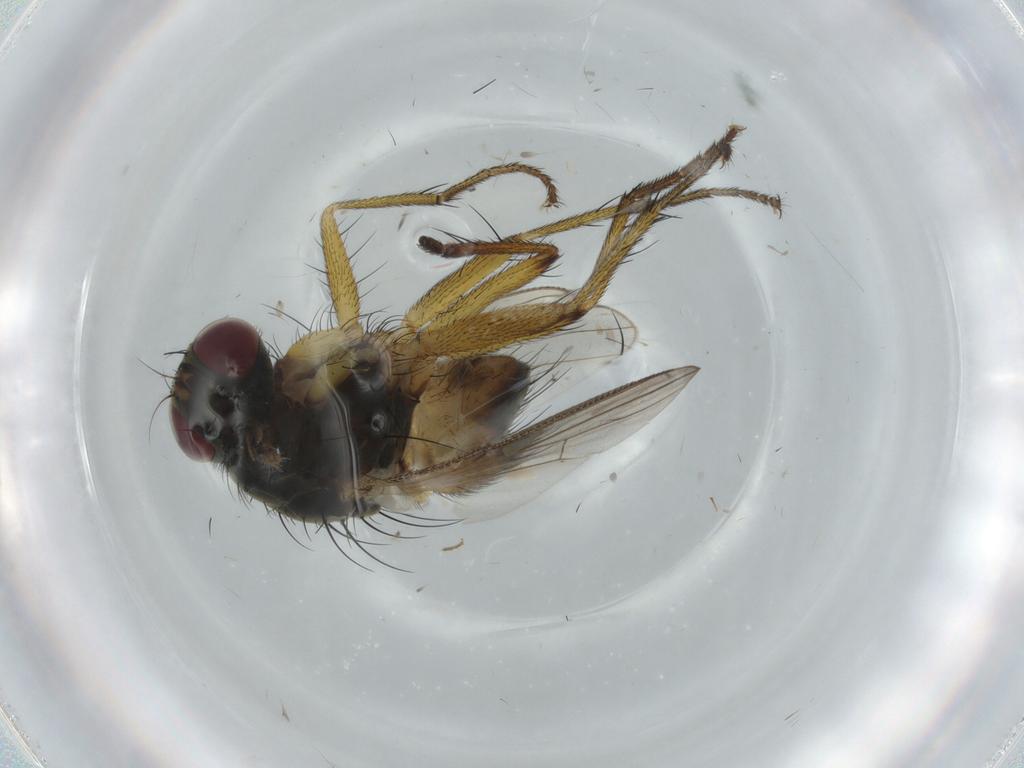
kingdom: Animalia
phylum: Arthropoda
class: Insecta
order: Diptera
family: Muscidae
